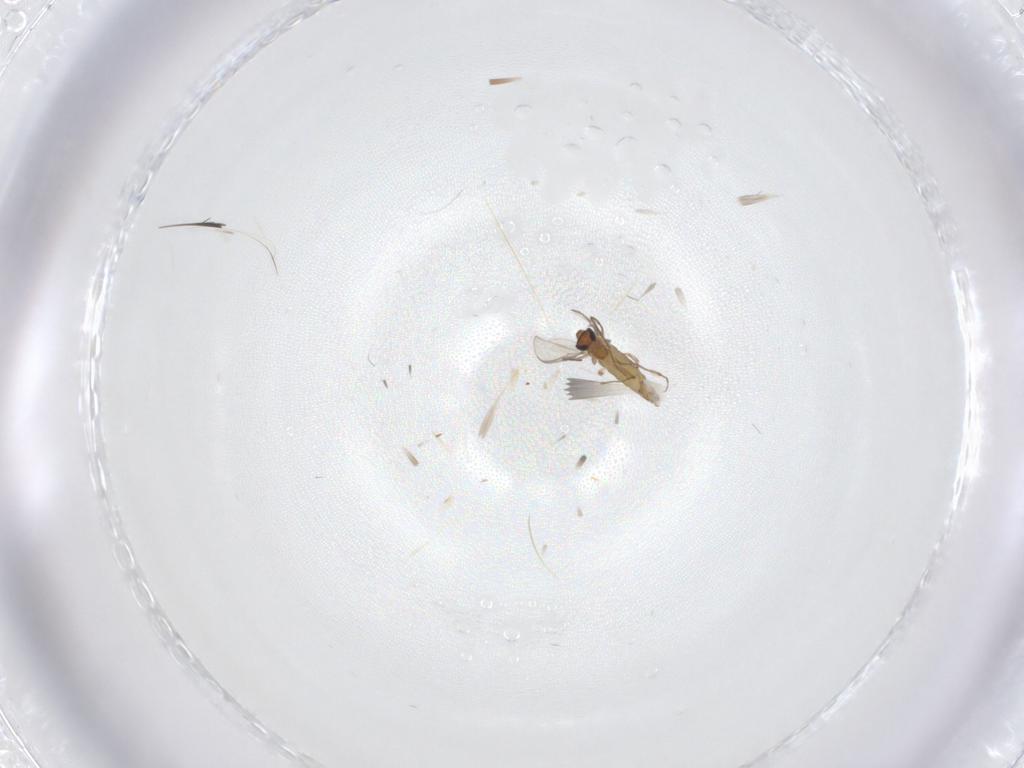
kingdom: Animalia
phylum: Arthropoda
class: Insecta
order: Diptera
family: Chironomidae
